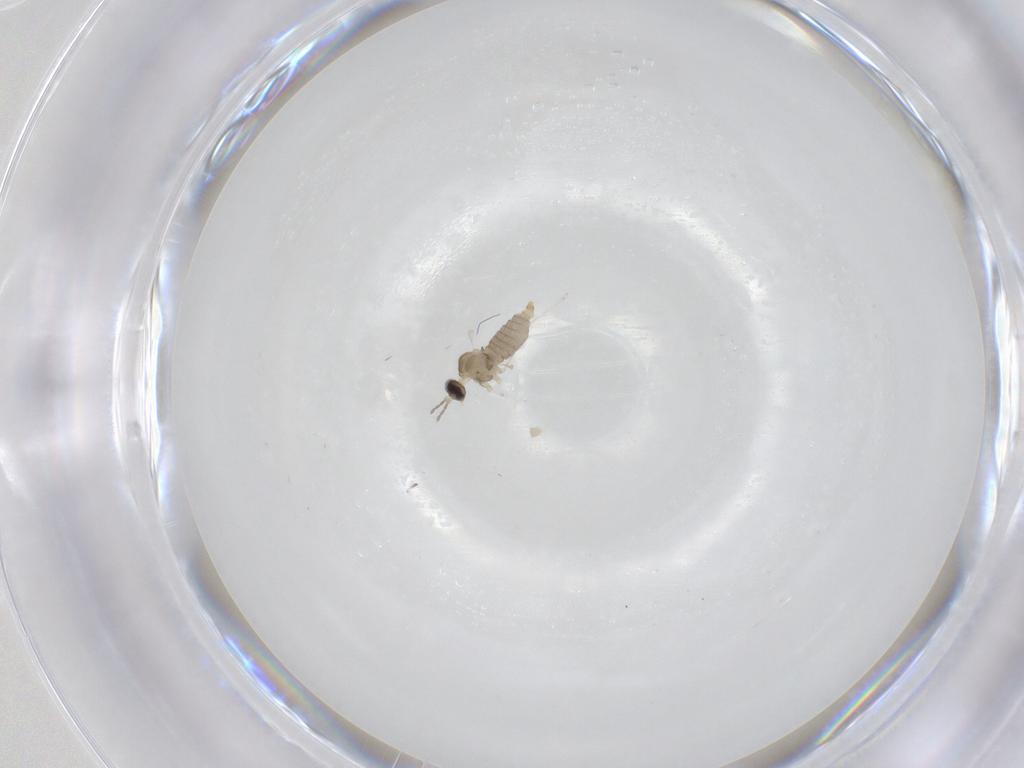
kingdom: Animalia
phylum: Arthropoda
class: Insecta
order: Diptera
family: Cecidomyiidae
